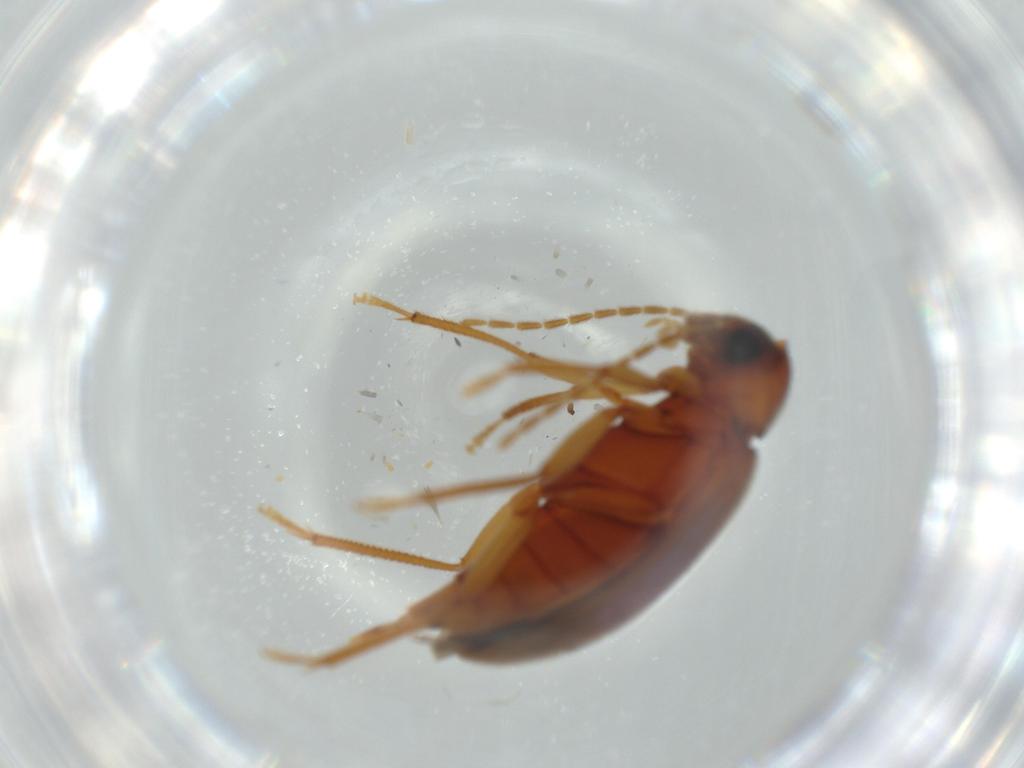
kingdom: Animalia
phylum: Arthropoda
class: Insecta
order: Coleoptera
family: Ptilodactylidae
